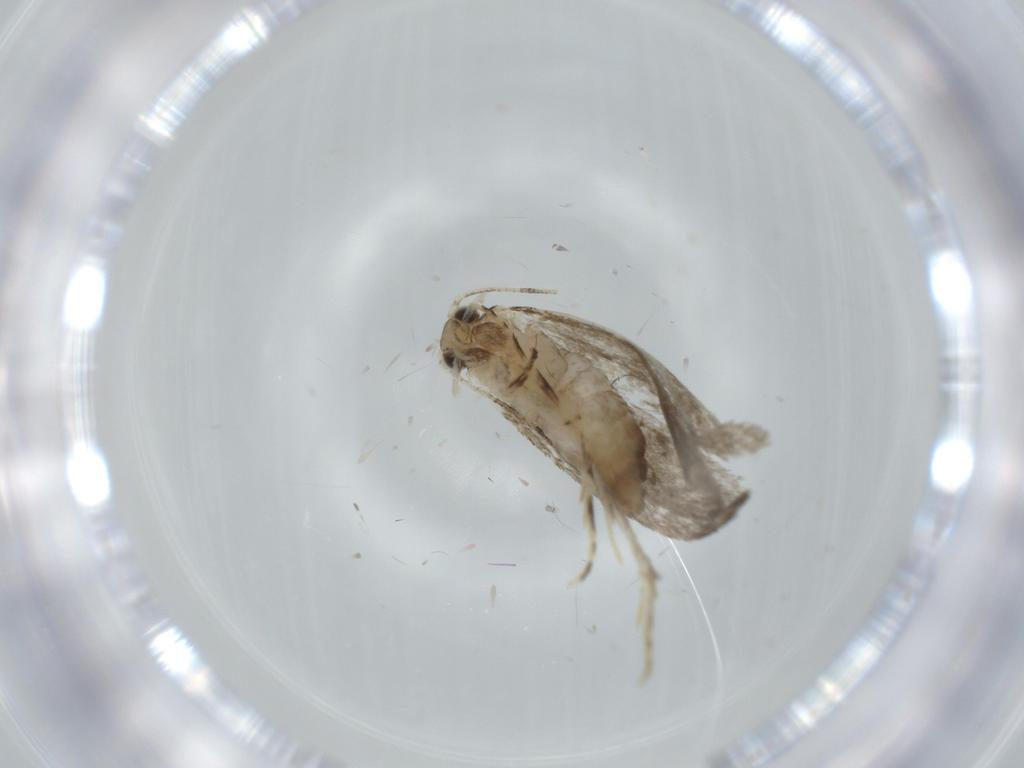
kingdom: Animalia
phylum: Arthropoda
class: Insecta
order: Lepidoptera
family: Tineidae
